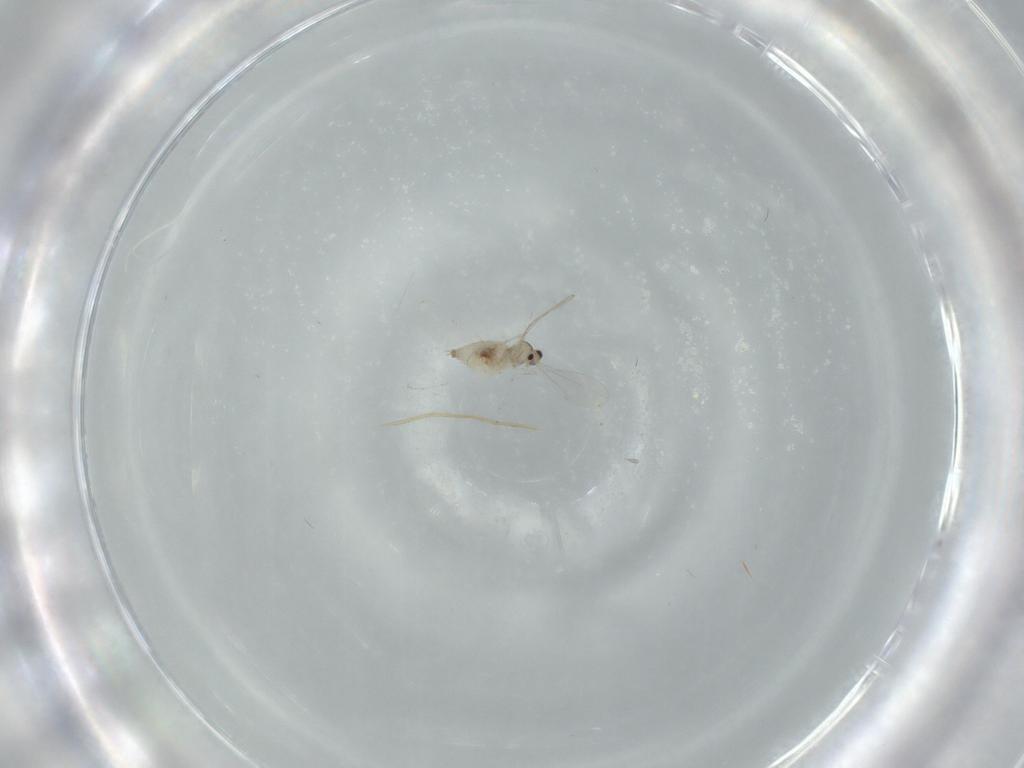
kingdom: Animalia
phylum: Arthropoda
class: Insecta
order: Diptera
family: Cecidomyiidae
